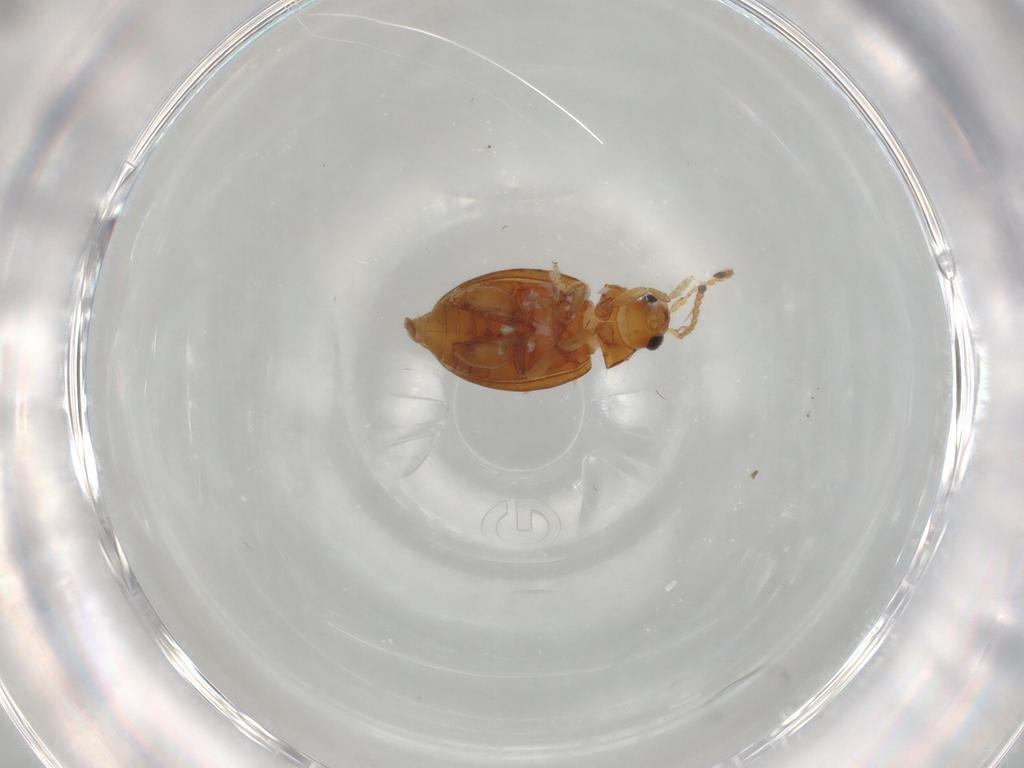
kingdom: Animalia
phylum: Arthropoda
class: Insecta
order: Coleoptera
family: Chrysomelidae
